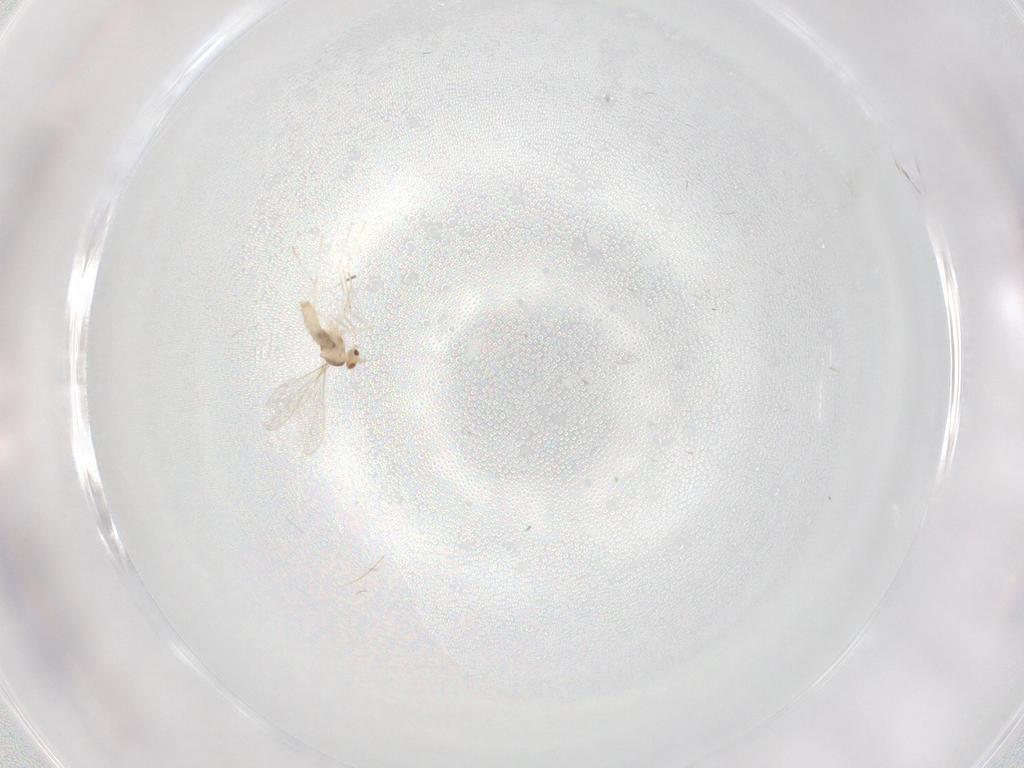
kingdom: Animalia
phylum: Arthropoda
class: Insecta
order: Diptera
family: Cecidomyiidae
